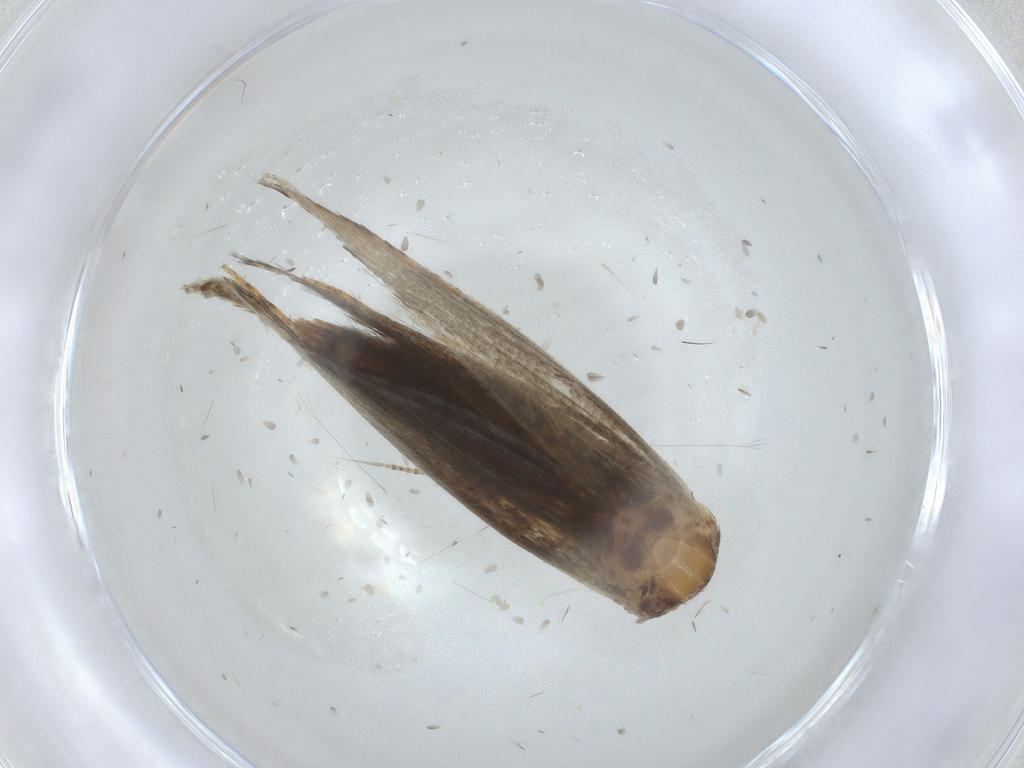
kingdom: Animalia
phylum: Arthropoda
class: Insecta
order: Lepidoptera
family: Crambidae
